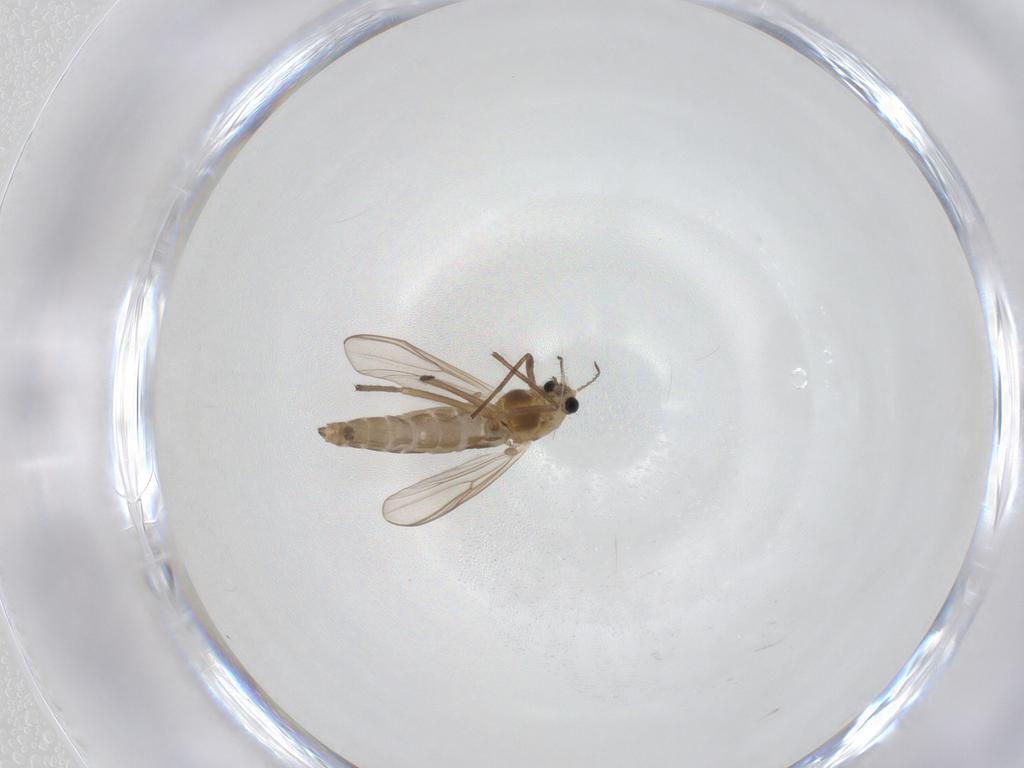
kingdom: Animalia
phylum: Arthropoda
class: Insecta
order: Diptera
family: Chironomidae
